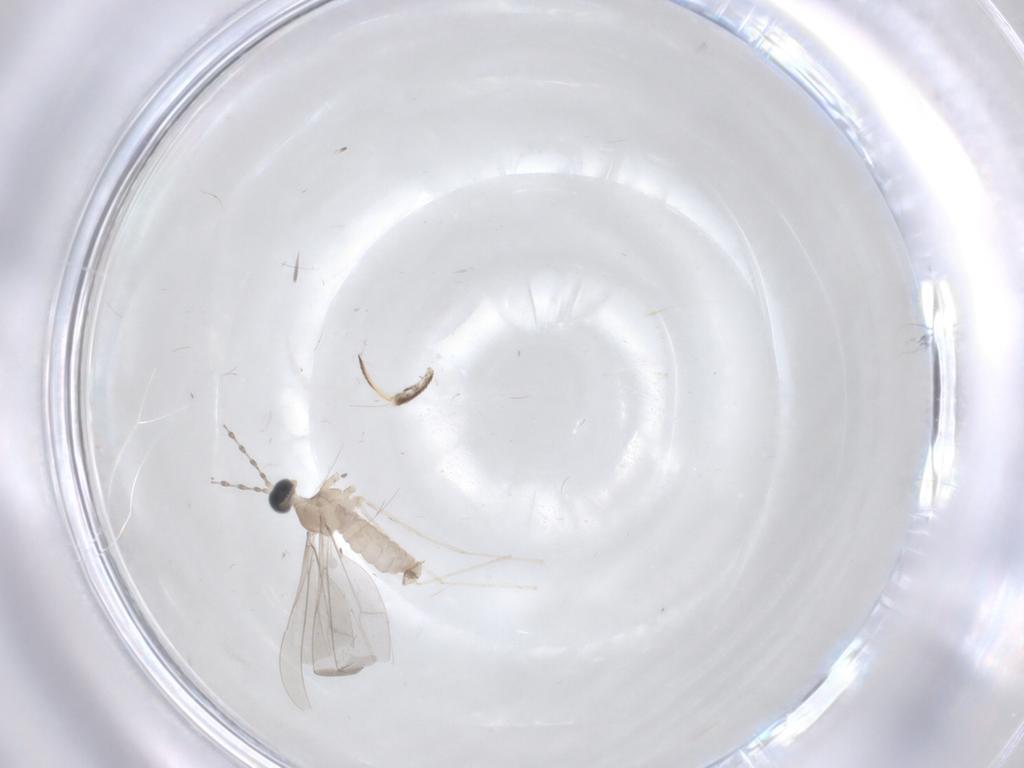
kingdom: Animalia
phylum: Arthropoda
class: Insecta
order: Diptera
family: Cecidomyiidae
